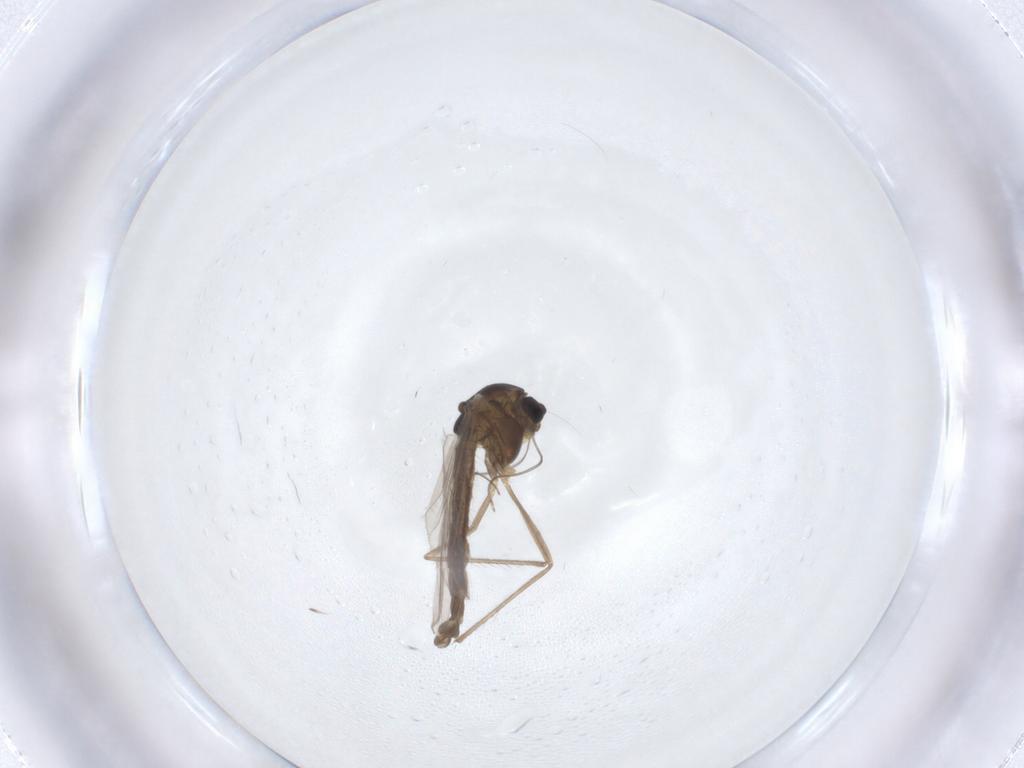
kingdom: Animalia
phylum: Arthropoda
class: Insecta
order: Diptera
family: Chironomidae
